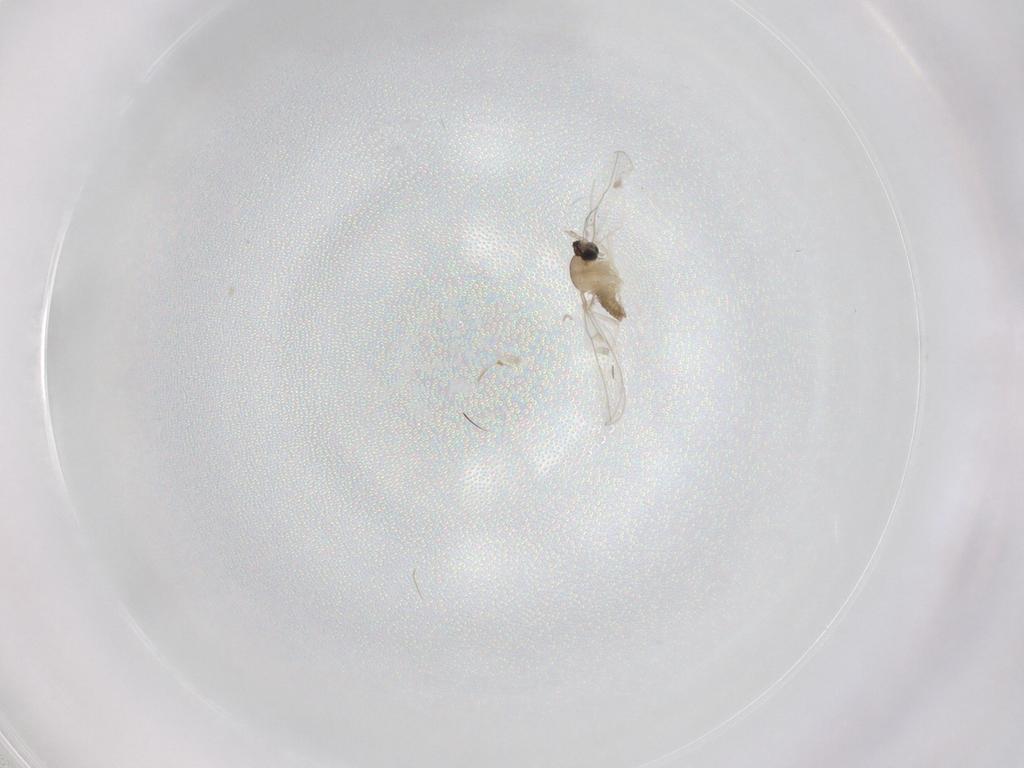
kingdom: Animalia
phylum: Arthropoda
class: Insecta
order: Diptera
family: Cecidomyiidae
